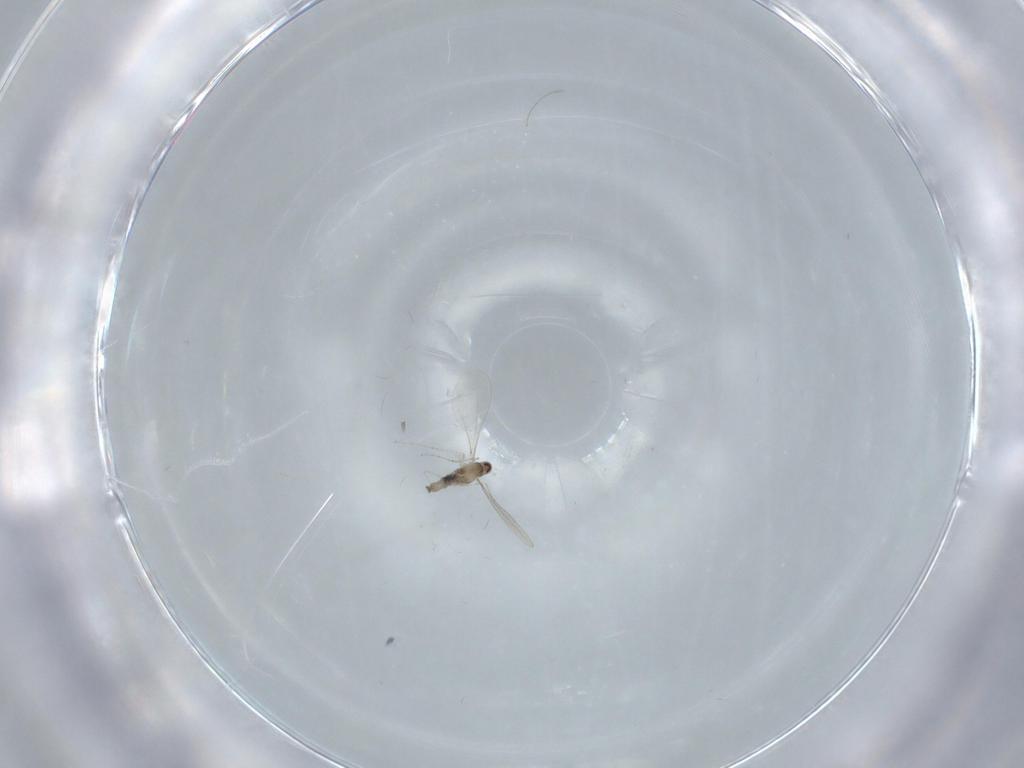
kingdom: Animalia
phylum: Arthropoda
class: Insecta
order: Diptera
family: Cecidomyiidae
